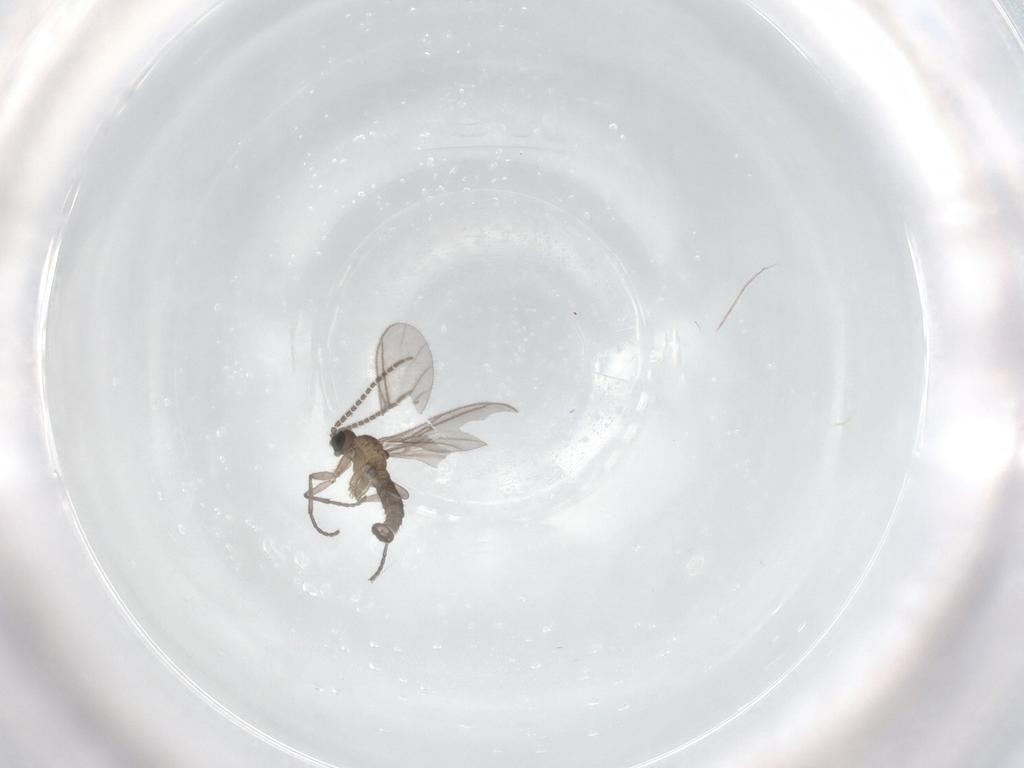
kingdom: Animalia
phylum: Arthropoda
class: Insecta
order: Diptera
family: Sciaridae
